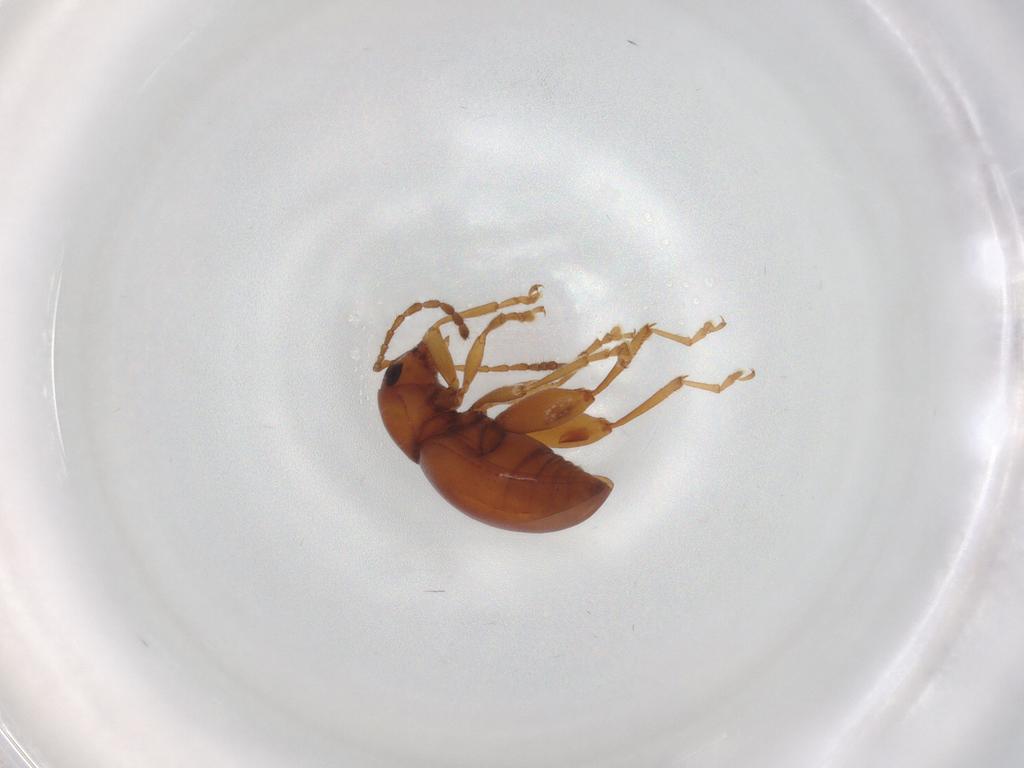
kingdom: Animalia
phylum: Arthropoda
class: Insecta
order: Coleoptera
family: Chrysomelidae
